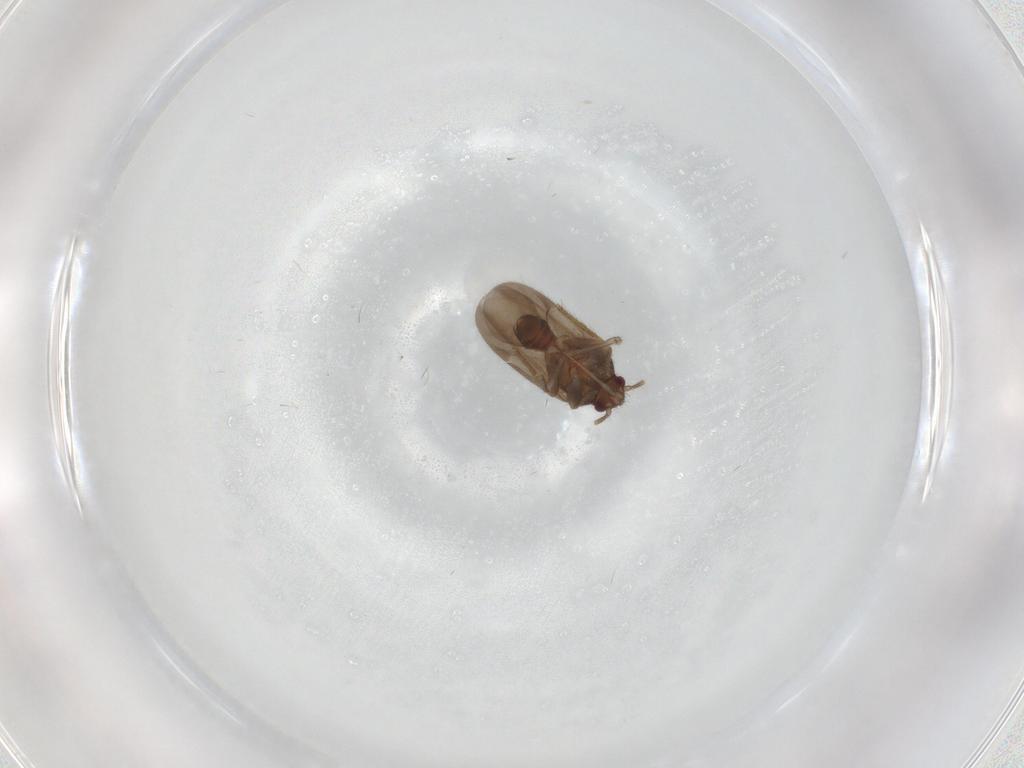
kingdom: Animalia
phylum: Arthropoda
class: Insecta
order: Hemiptera
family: Ceratocombidae
